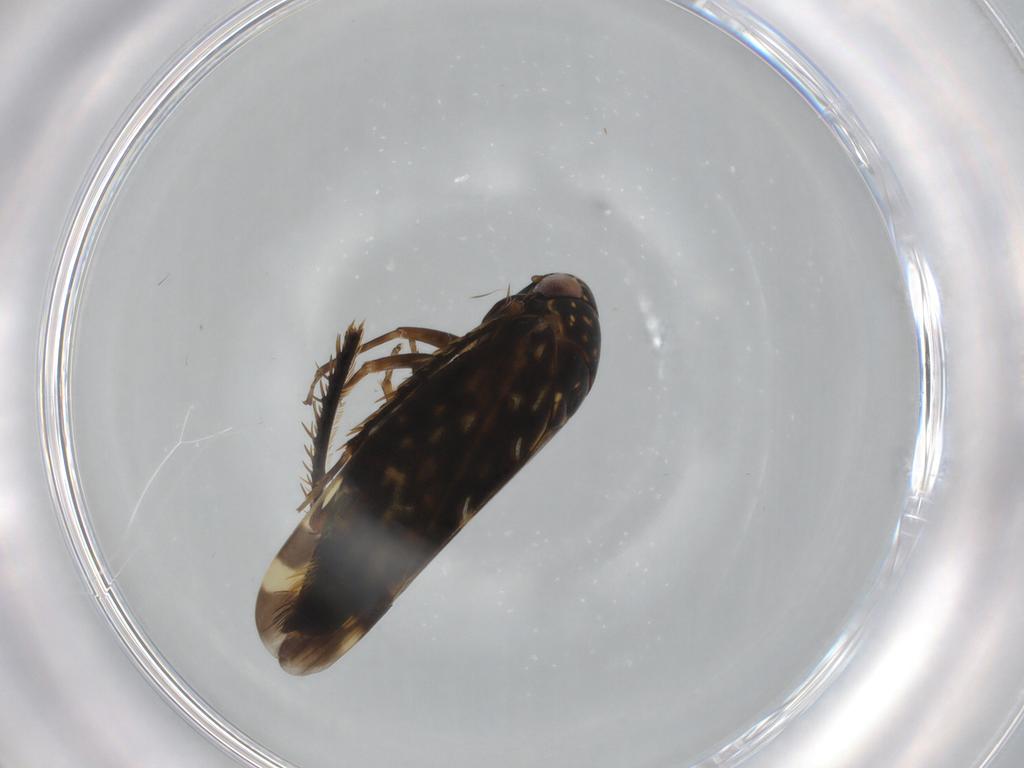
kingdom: Animalia
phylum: Arthropoda
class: Insecta
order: Hemiptera
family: Cicadellidae
